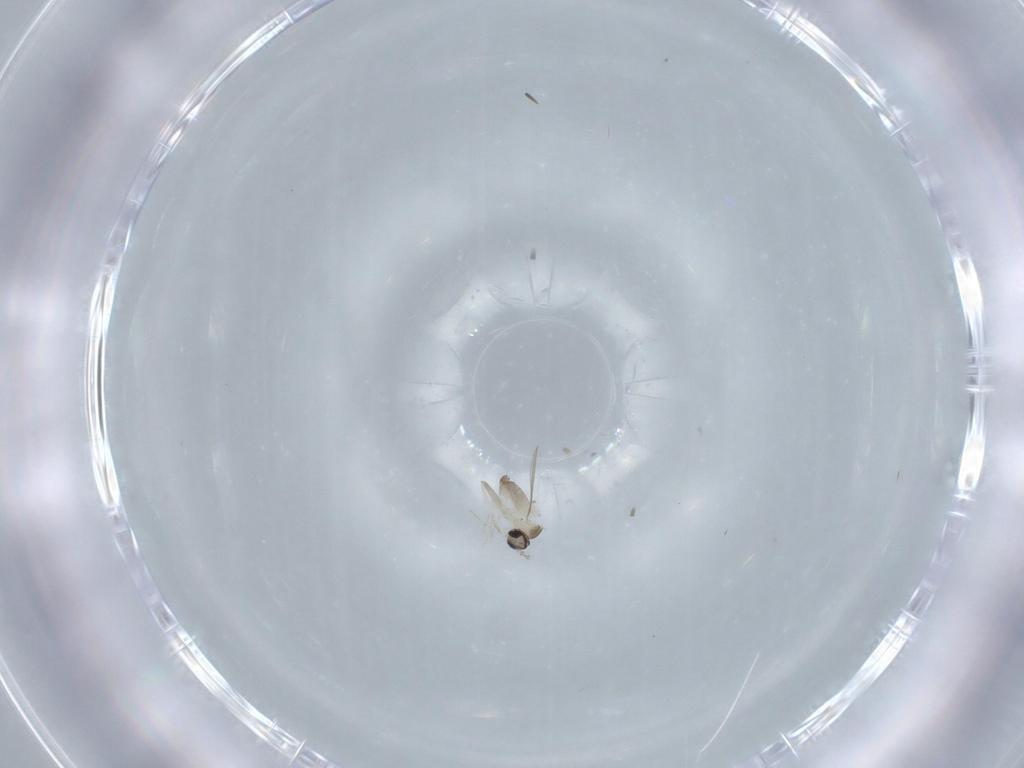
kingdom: Animalia
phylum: Arthropoda
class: Insecta
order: Diptera
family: Cecidomyiidae
